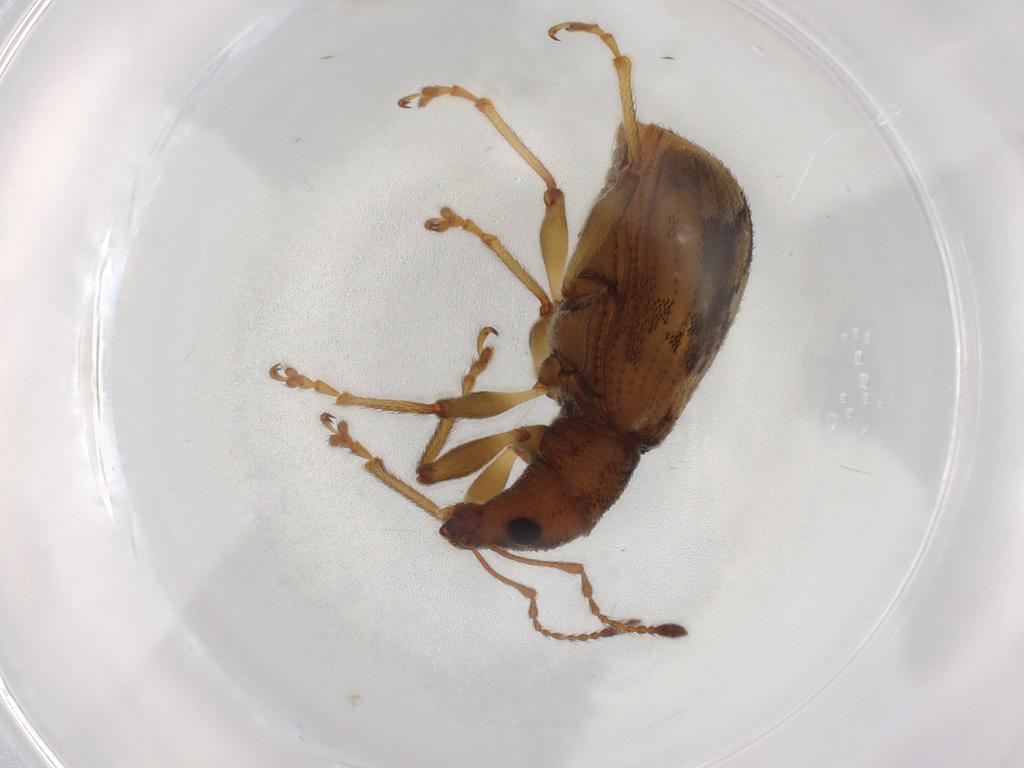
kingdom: Animalia
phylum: Arthropoda
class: Insecta
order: Coleoptera
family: Curculionidae
